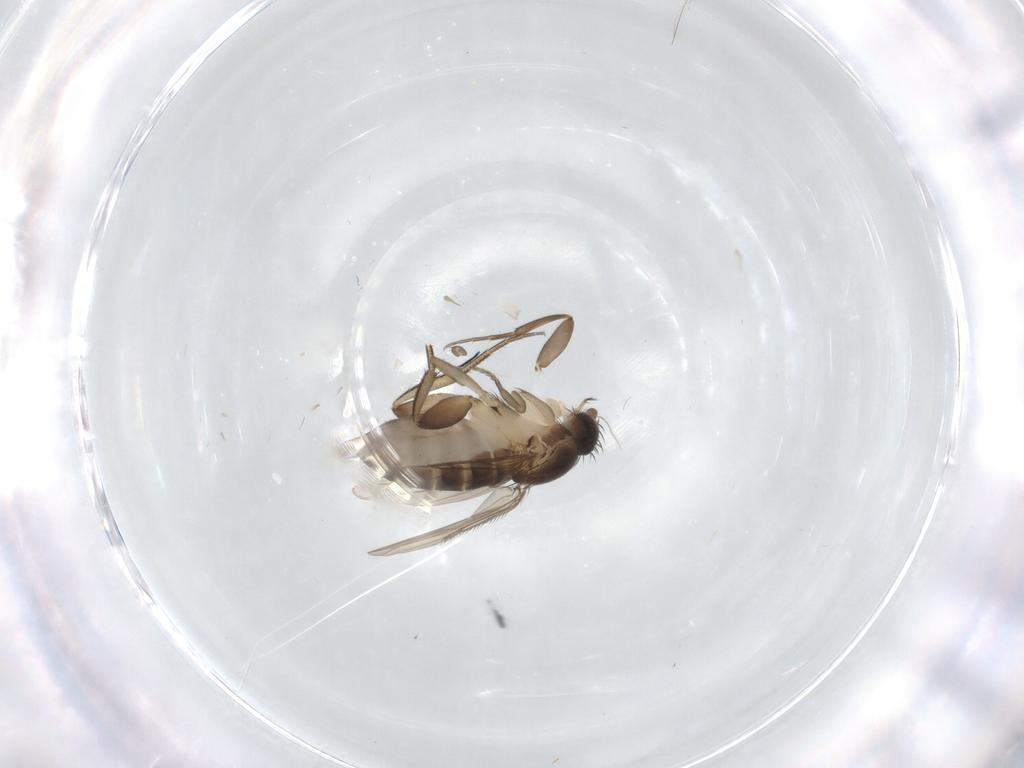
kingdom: Animalia
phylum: Arthropoda
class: Insecta
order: Diptera
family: Phoridae
